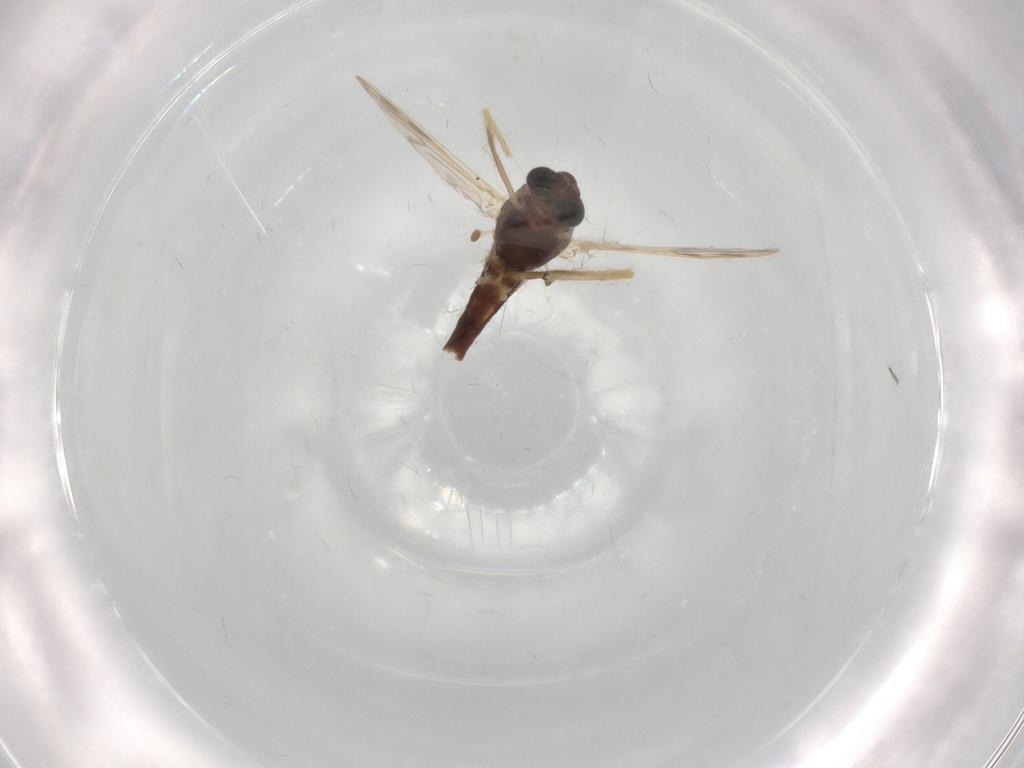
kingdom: Animalia
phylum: Arthropoda
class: Insecta
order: Diptera
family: Chironomidae
